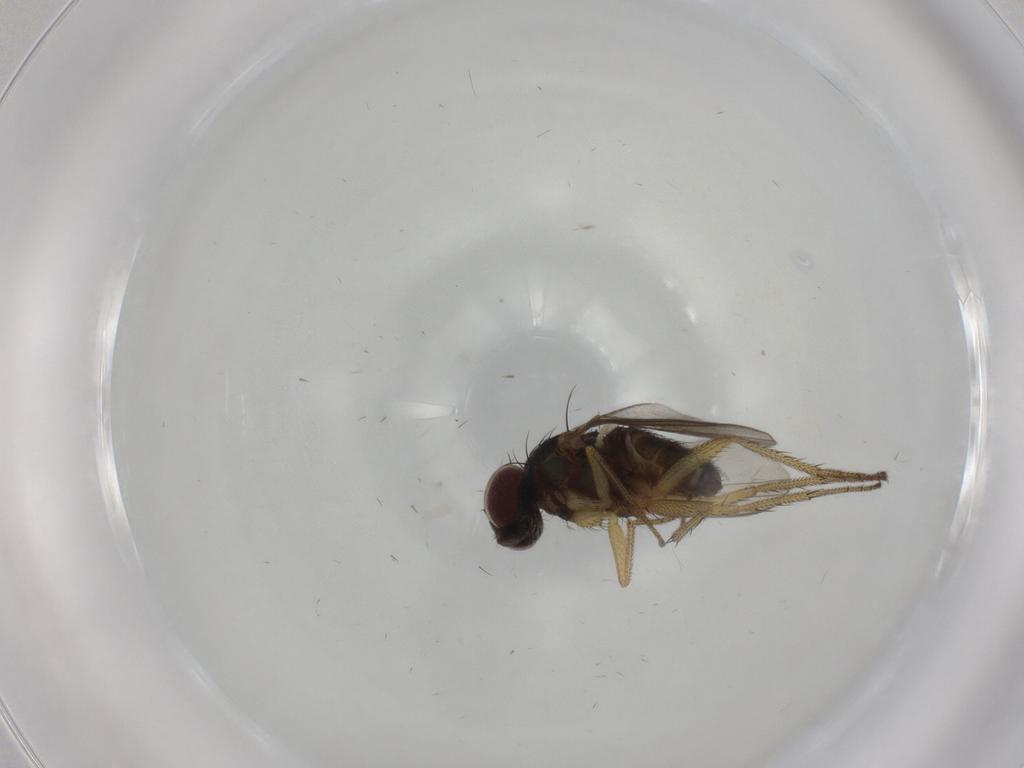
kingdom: Animalia
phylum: Arthropoda
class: Insecta
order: Diptera
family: Dolichopodidae
